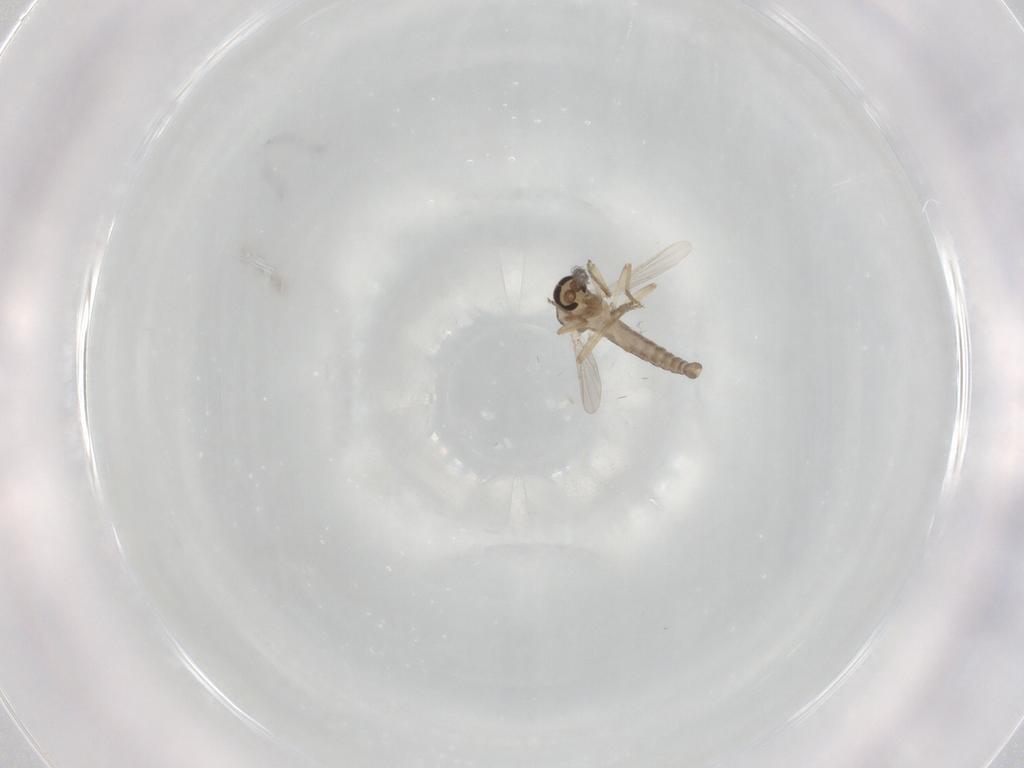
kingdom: Animalia
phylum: Arthropoda
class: Insecta
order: Diptera
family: Ceratopogonidae
